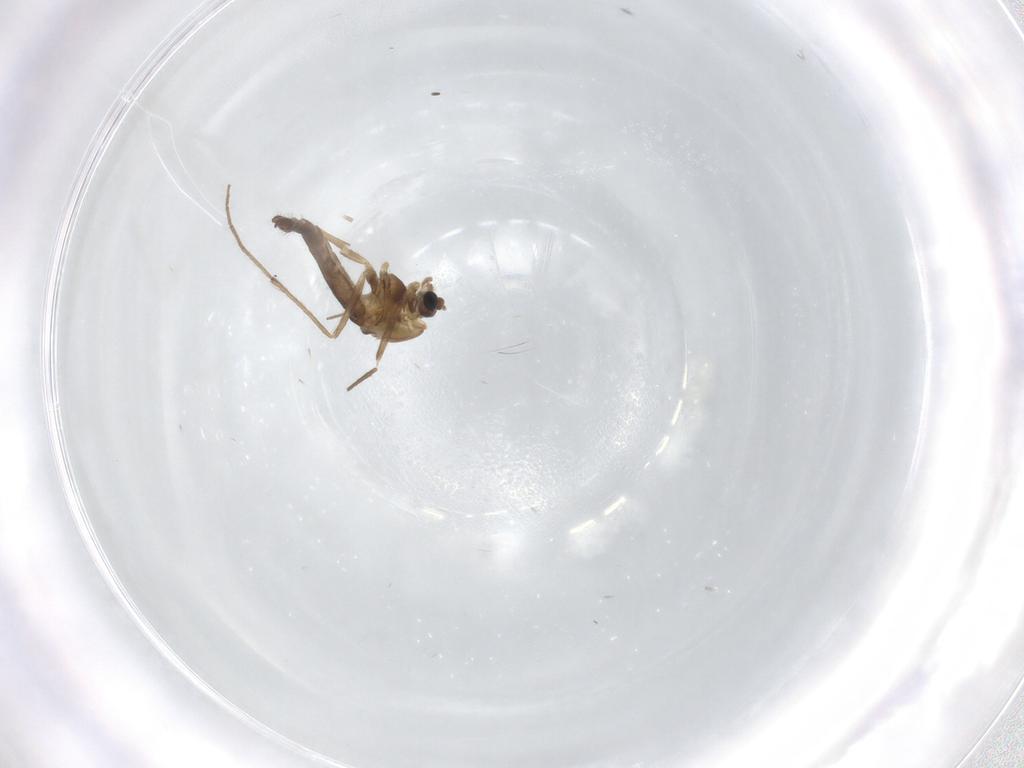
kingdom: Animalia
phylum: Arthropoda
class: Insecta
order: Diptera
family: Chironomidae
